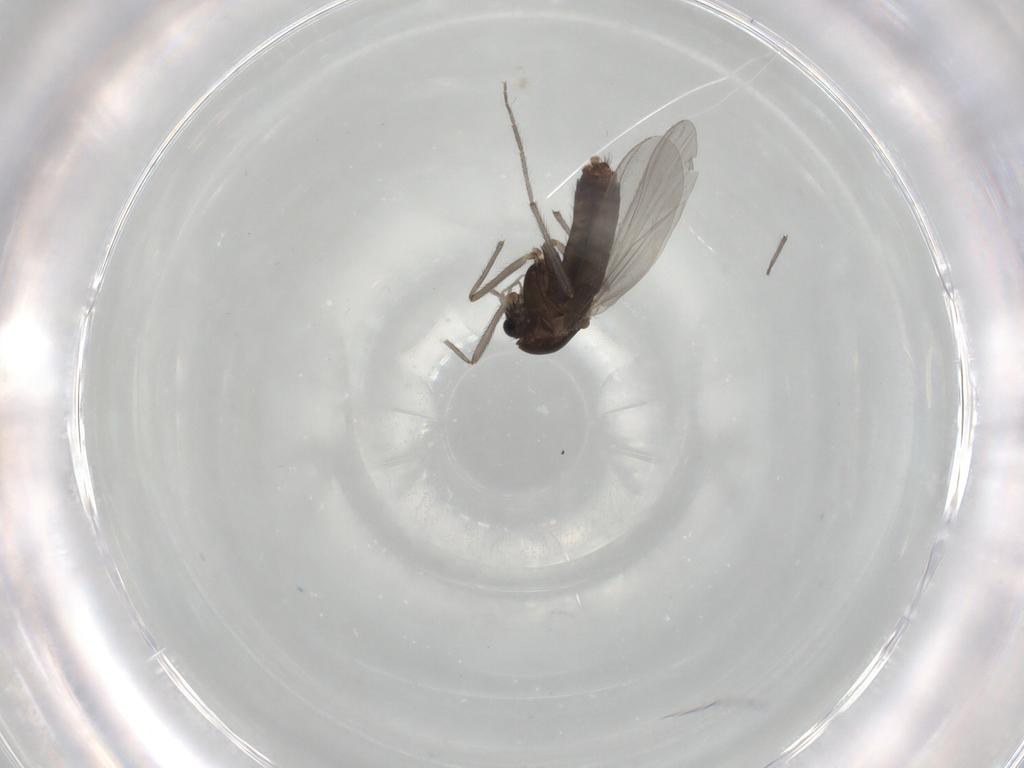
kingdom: Animalia
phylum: Arthropoda
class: Insecta
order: Diptera
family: Chironomidae
